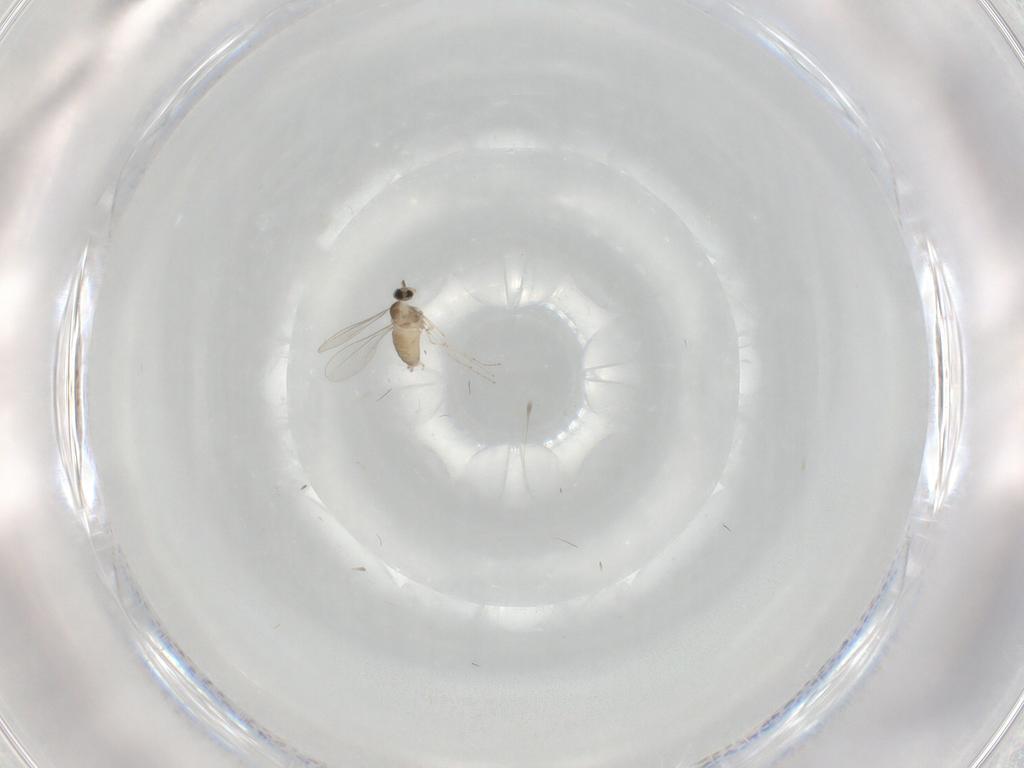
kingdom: Animalia
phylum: Arthropoda
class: Insecta
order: Diptera
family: Cecidomyiidae
